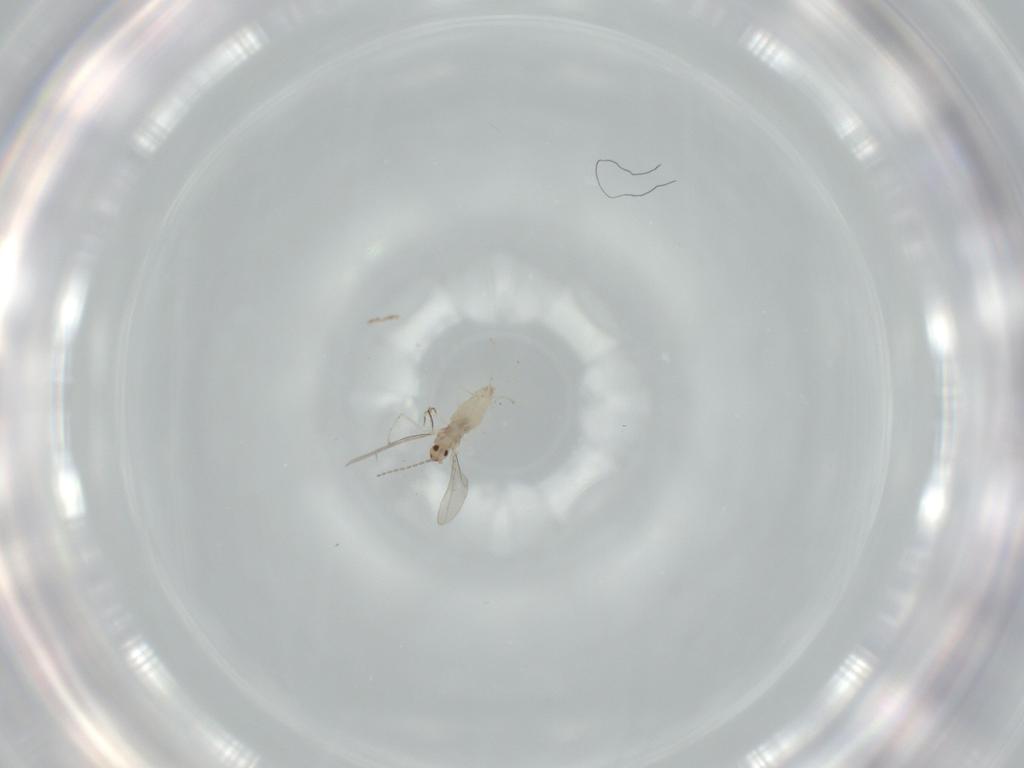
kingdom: Animalia
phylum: Arthropoda
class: Insecta
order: Diptera
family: Cecidomyiidae
